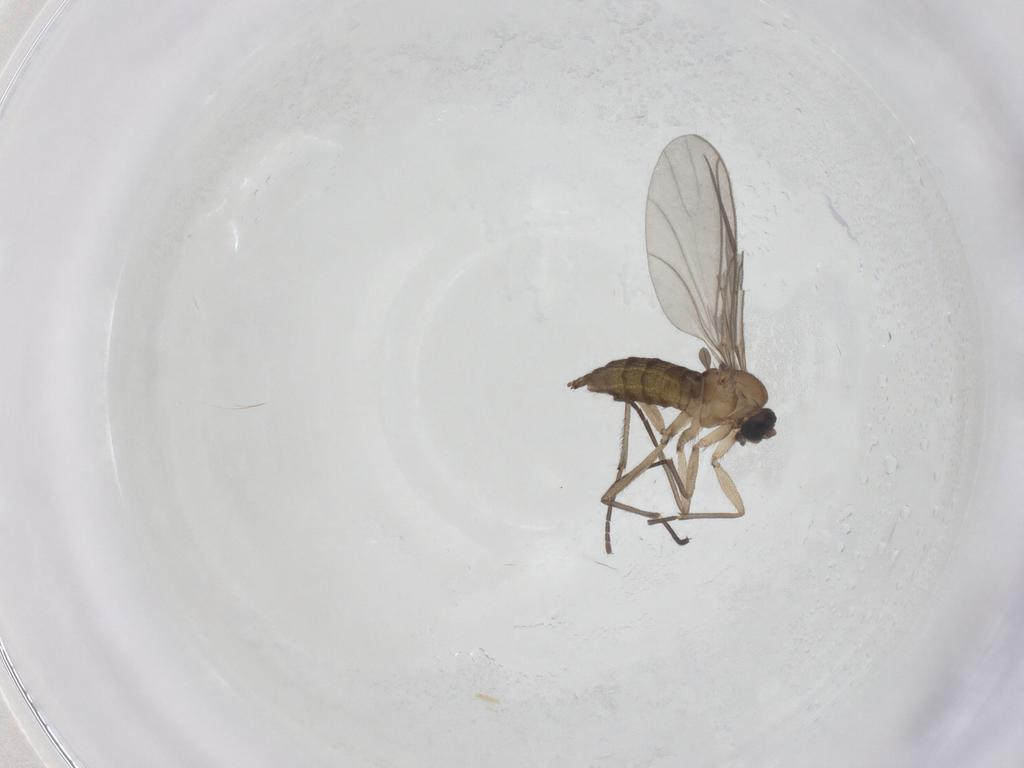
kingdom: Animalia
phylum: Arthropoda
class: Insecta
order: Diptera
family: Sciaridae
